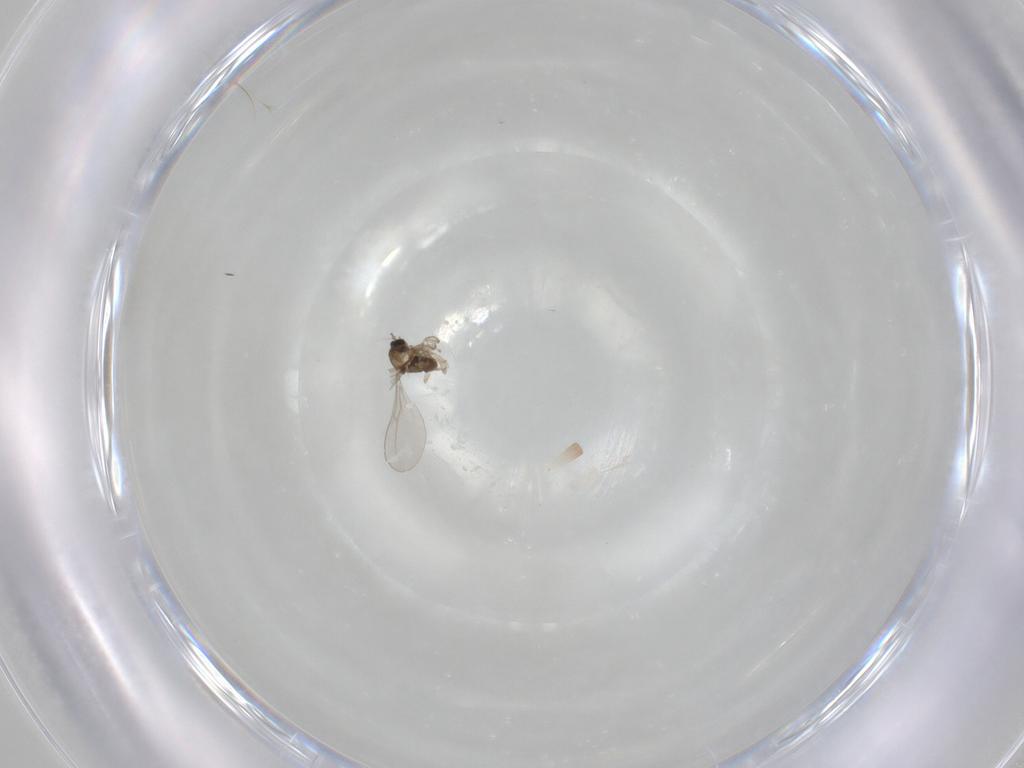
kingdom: Animalia
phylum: Arthropoda
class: Insecta
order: Diptera
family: Cecidomyiidae
